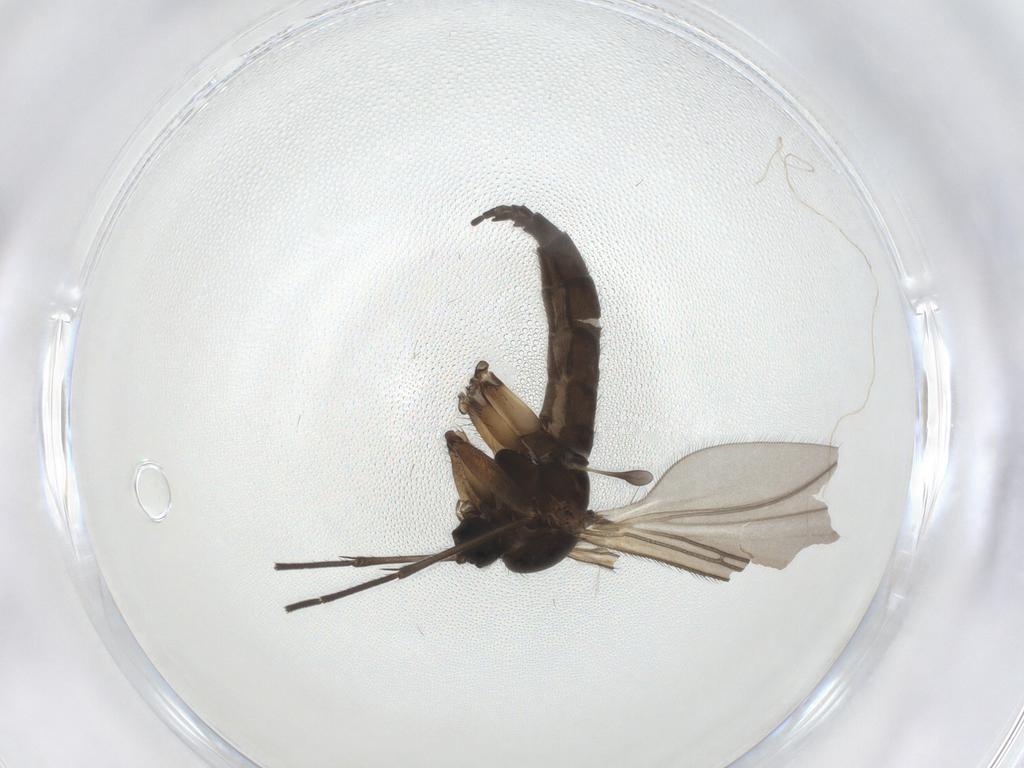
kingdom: Animalia
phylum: Arthropoda
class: Insecta
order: Diptera
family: Sciaridae
